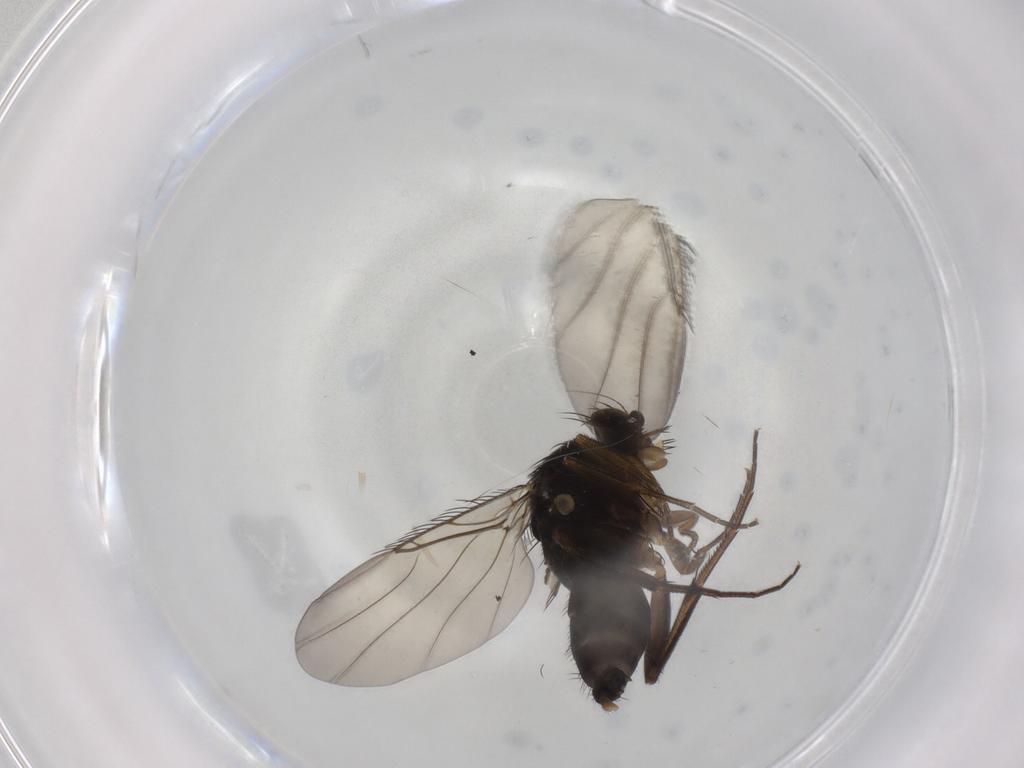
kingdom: Animalia
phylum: Arthropoda
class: Insecta
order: Diptera
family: Phoridae
